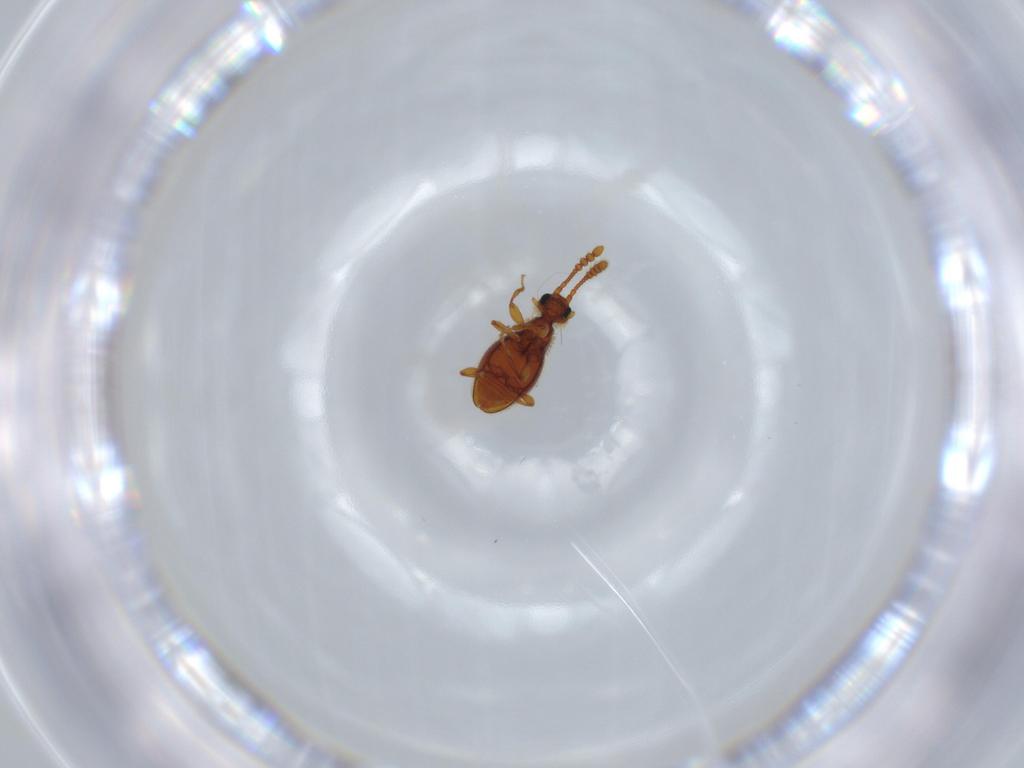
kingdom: Animalia
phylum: Arthropoda
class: Insecta
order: Coleoptera
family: Staphylinidae
